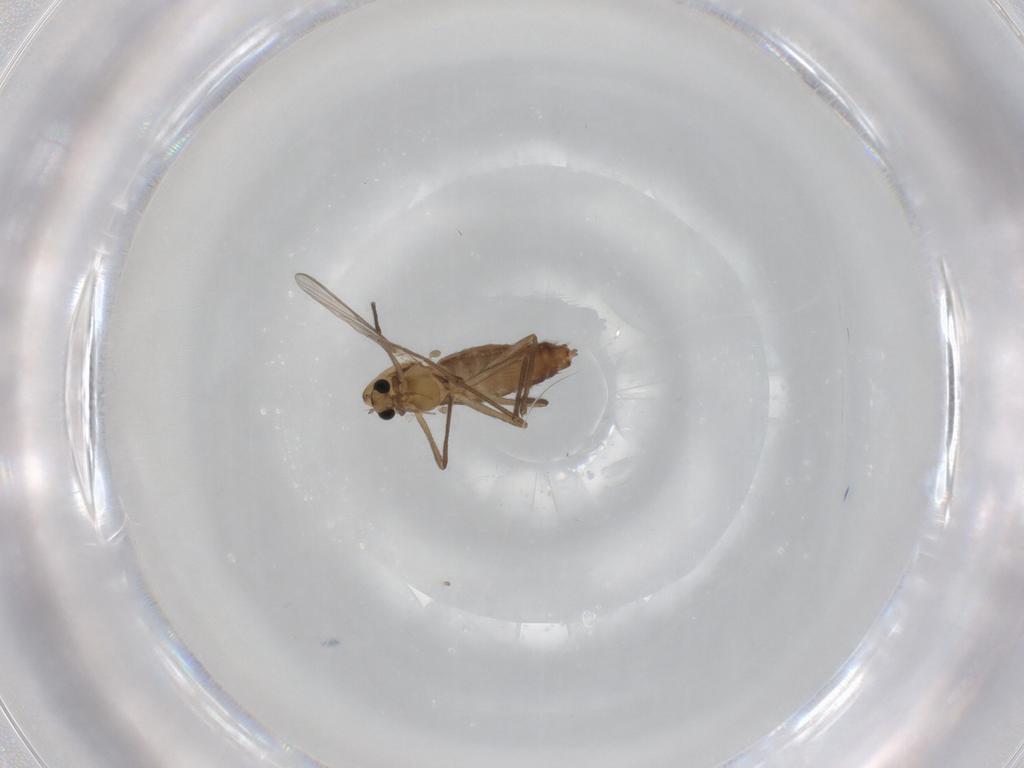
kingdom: Animalia
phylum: Arthropoda
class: Insecta
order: Diptera
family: Chironomidae
